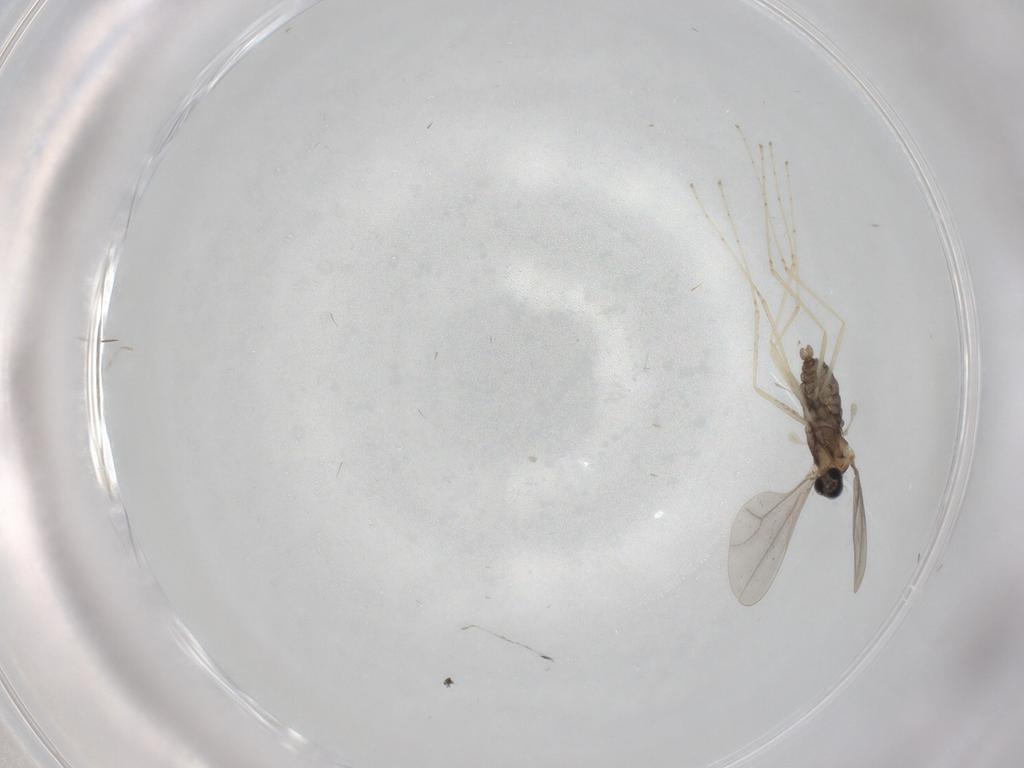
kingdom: Animalia
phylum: Arthropoda
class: Insecta
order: Diptera
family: Cecidomyiidae
